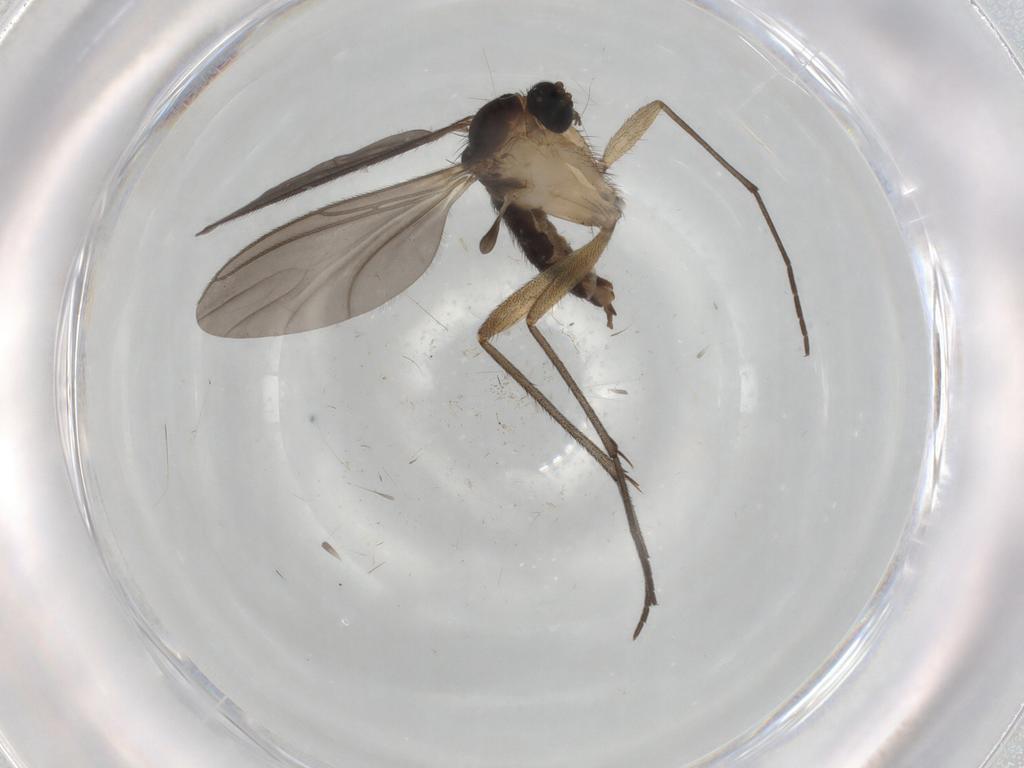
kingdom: Animalia
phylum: Arthropoda
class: Insecta
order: Diptera
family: Sciaridae
